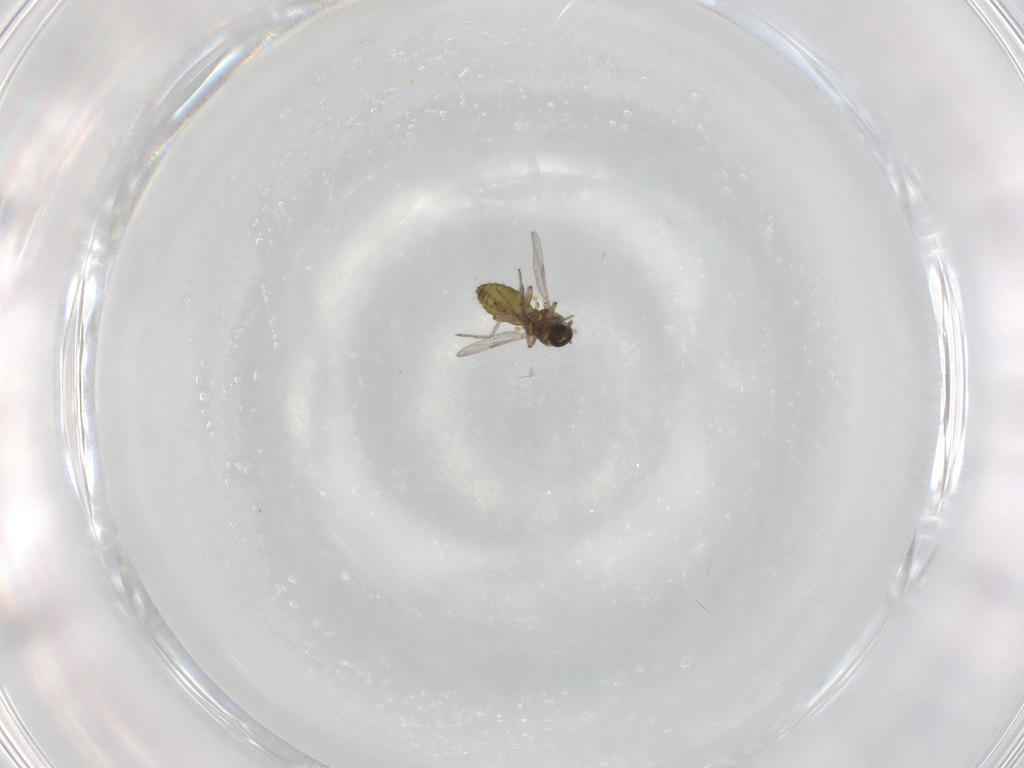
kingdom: Animalia
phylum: Arthropoda
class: Insecta
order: Diptera
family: Ceratopogonidae
